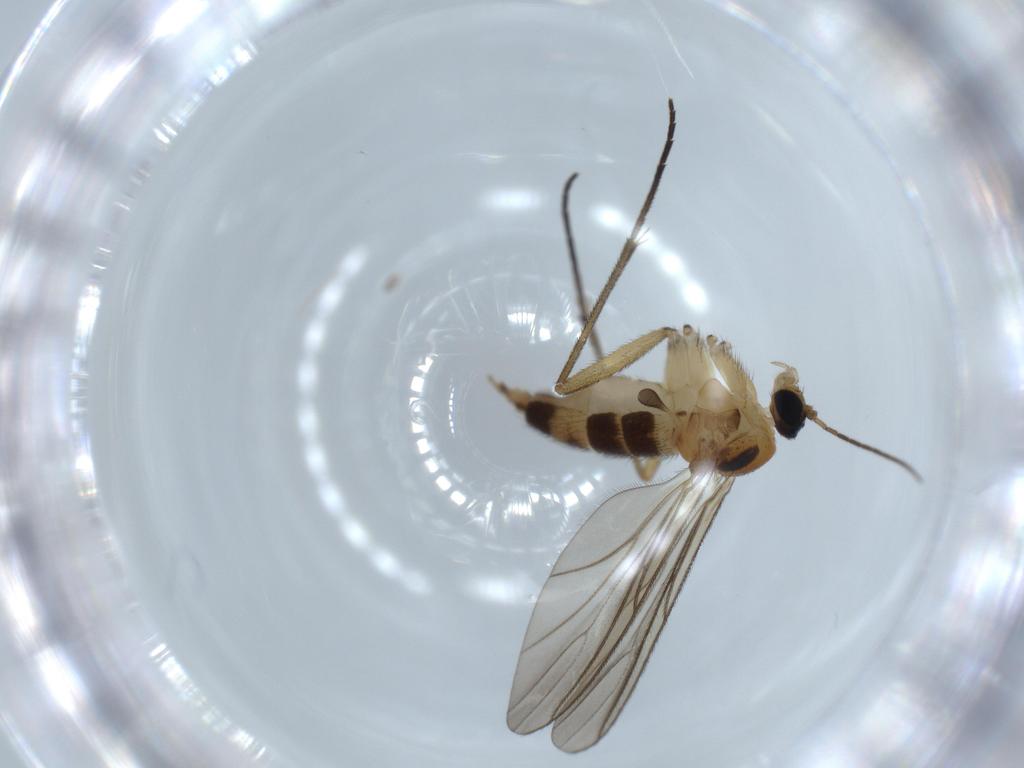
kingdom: Animalia
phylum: Arthropoda
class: Insecta
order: Diptera
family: Sciaridae
